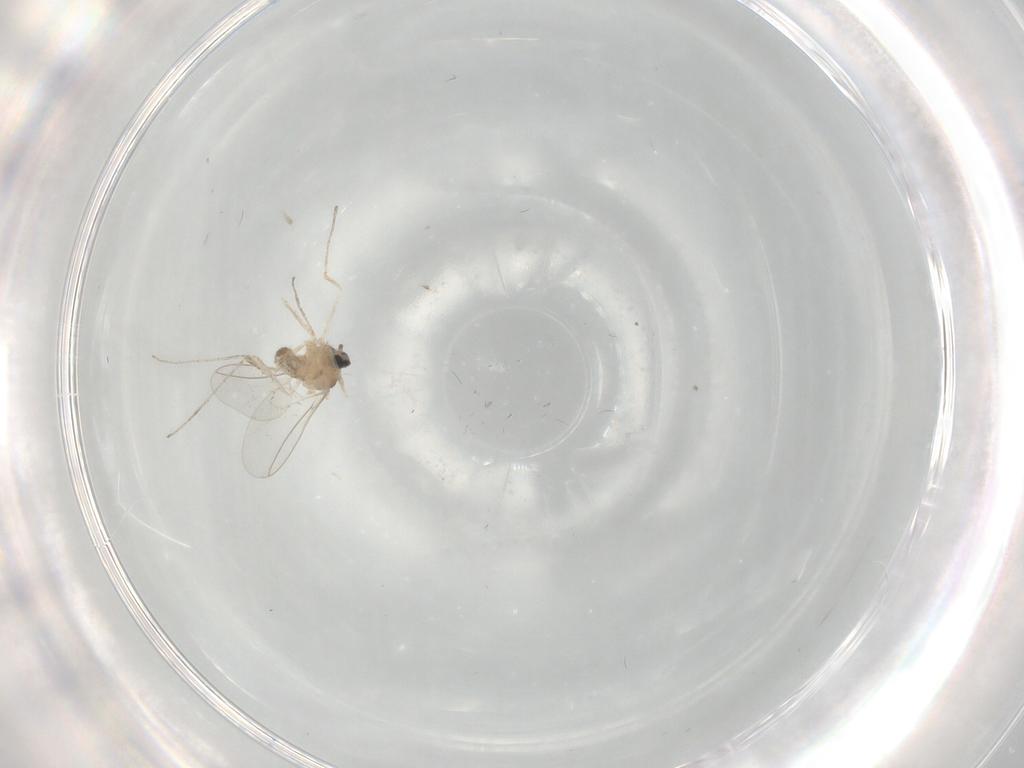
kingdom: Animalia
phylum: Arthropoda
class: Insecta
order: Diptera
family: Cecidomyiidae
